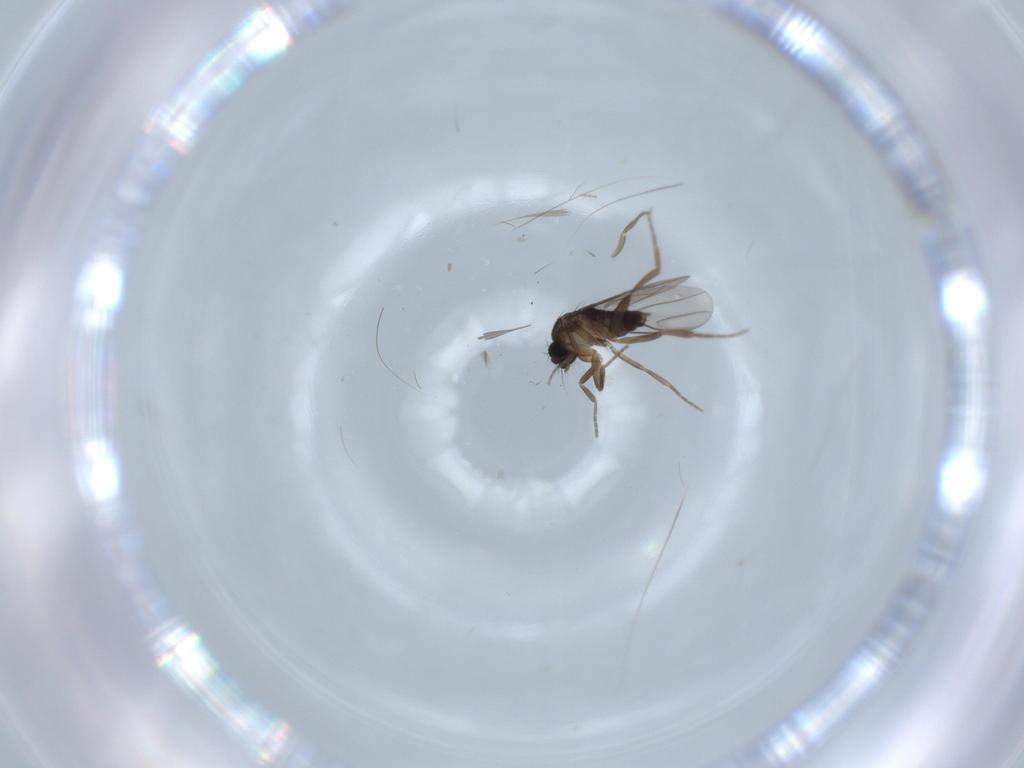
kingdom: Animalia
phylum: Arthropoda
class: Insecta
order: Diptera
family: Phoridae
